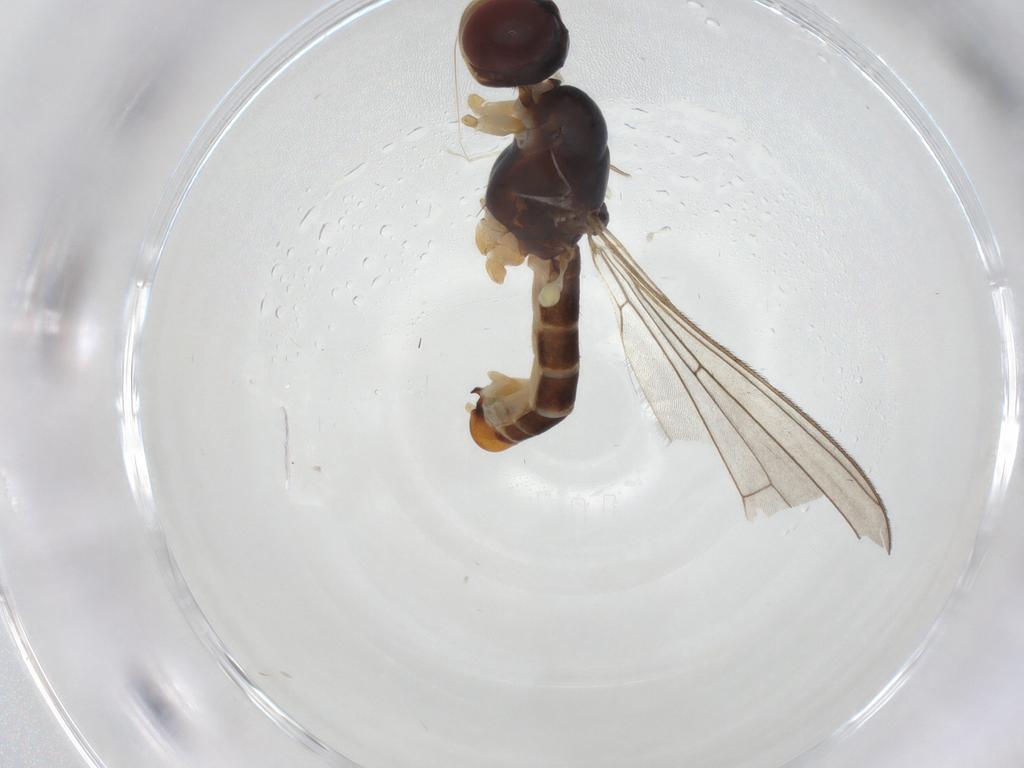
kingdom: Animalia
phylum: Arthropoda
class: Insecta
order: Diptera
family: Micropezidae
